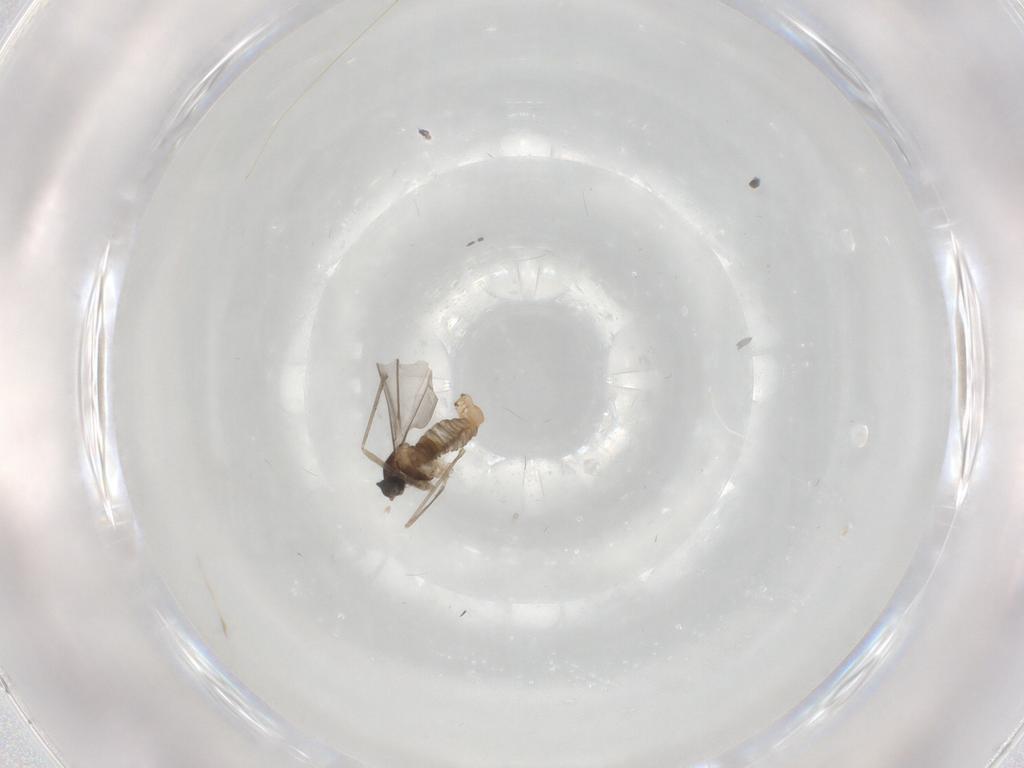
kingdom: Animalia
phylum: Arthropoda
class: Insecta
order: Diptera
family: Cecidomyiidae
